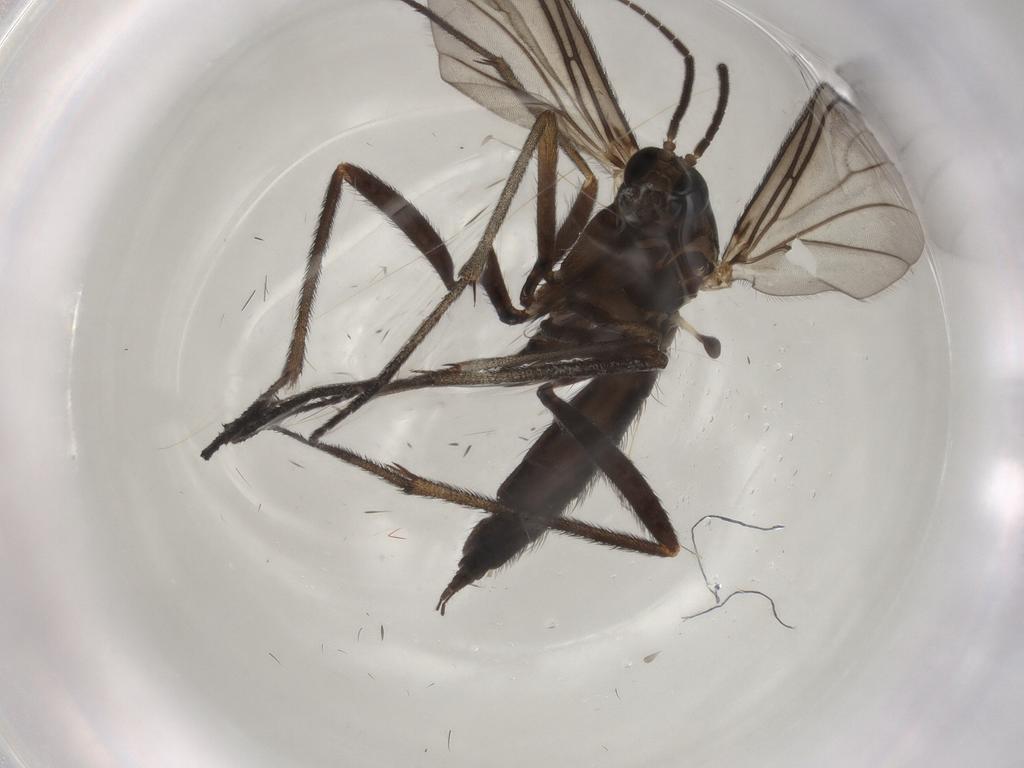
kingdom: Animalia
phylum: Arthropoda
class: Insecta
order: Diptera
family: Sciaridae
